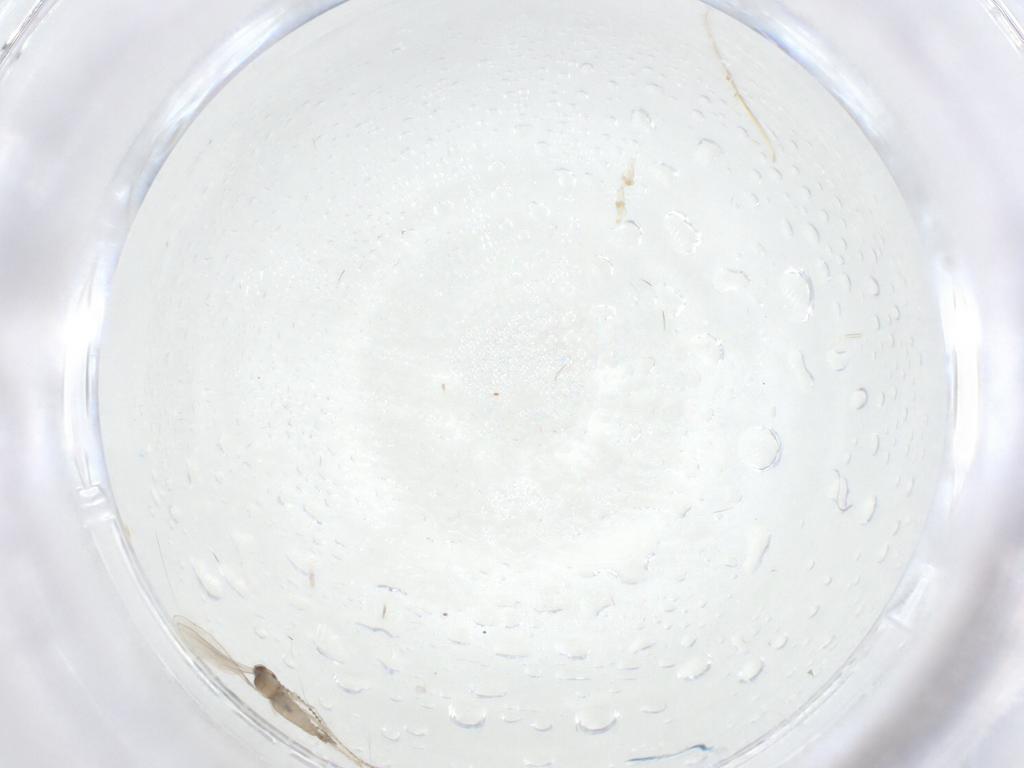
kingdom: Animalia
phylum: Arthropoda
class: Insecta
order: Diptera
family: Cecidomyiidae
